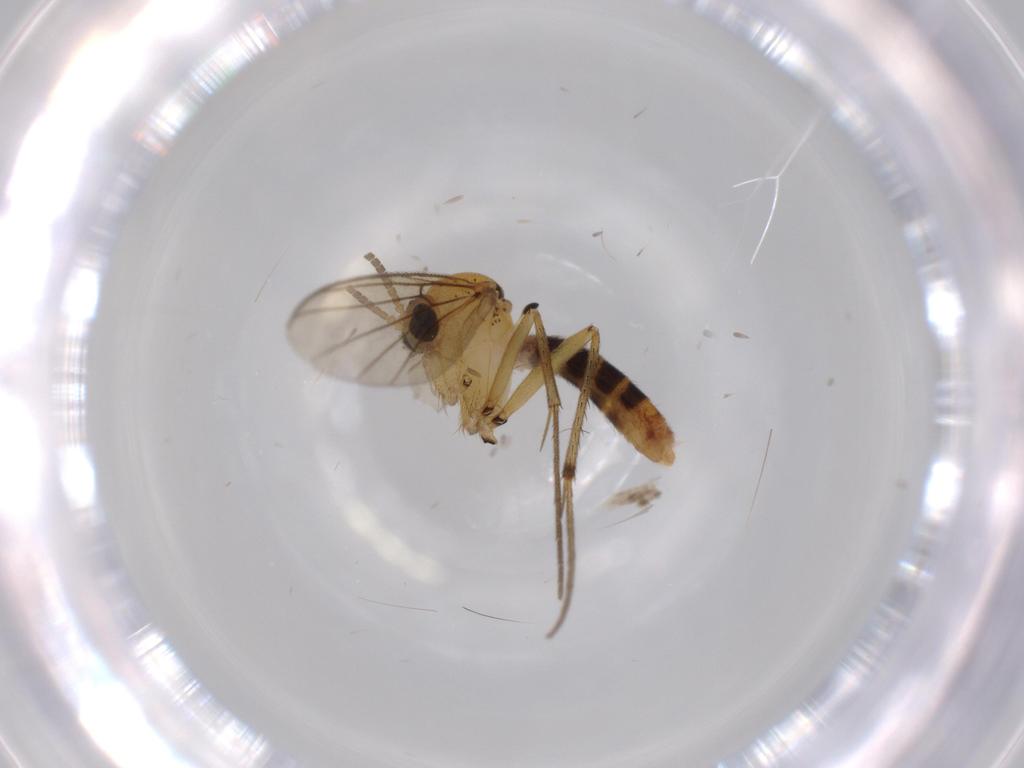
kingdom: Animalia
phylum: Arthropoda
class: Insecta
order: Diptera
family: Mycetophilidae
